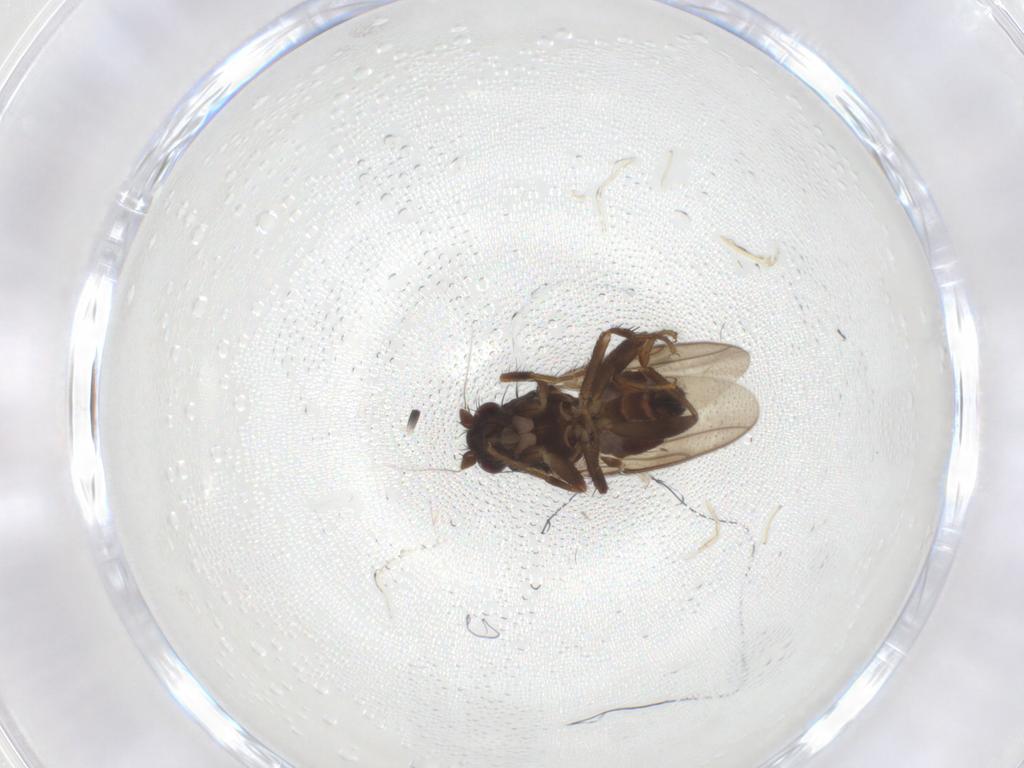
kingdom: Animalia
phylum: Arthropoda
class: Insecta
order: Diptera
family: Sphaeroceridae
